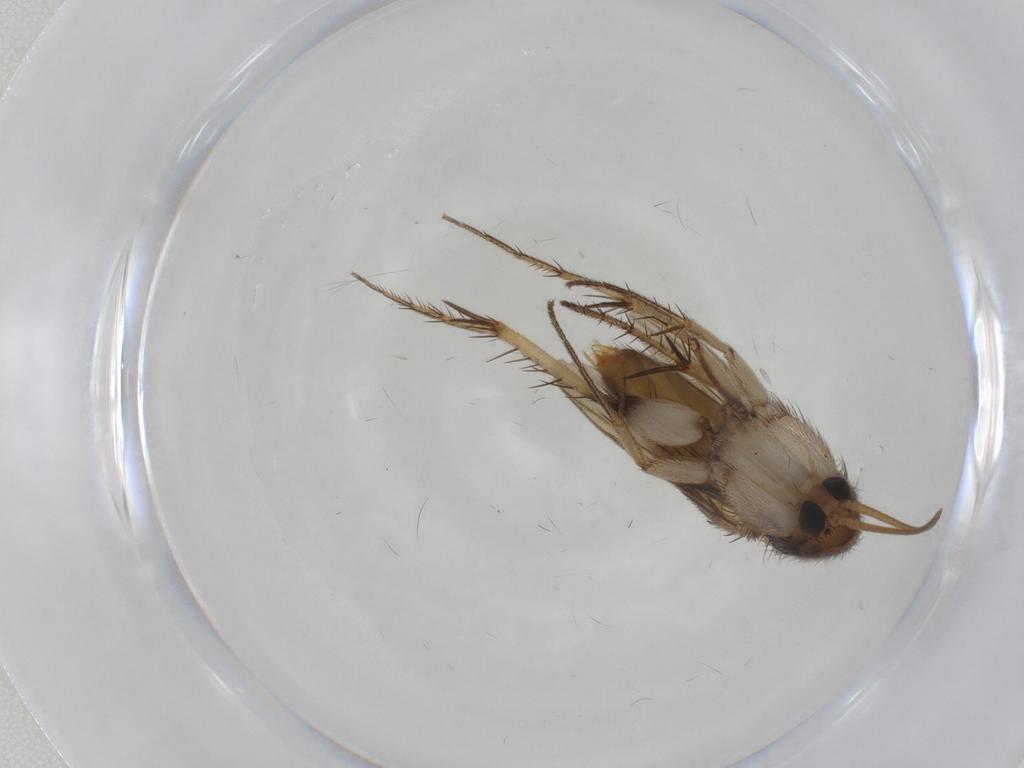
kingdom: Animalia
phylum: Arthropoda
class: Insecta
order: Diptera
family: Mycetophilidae
